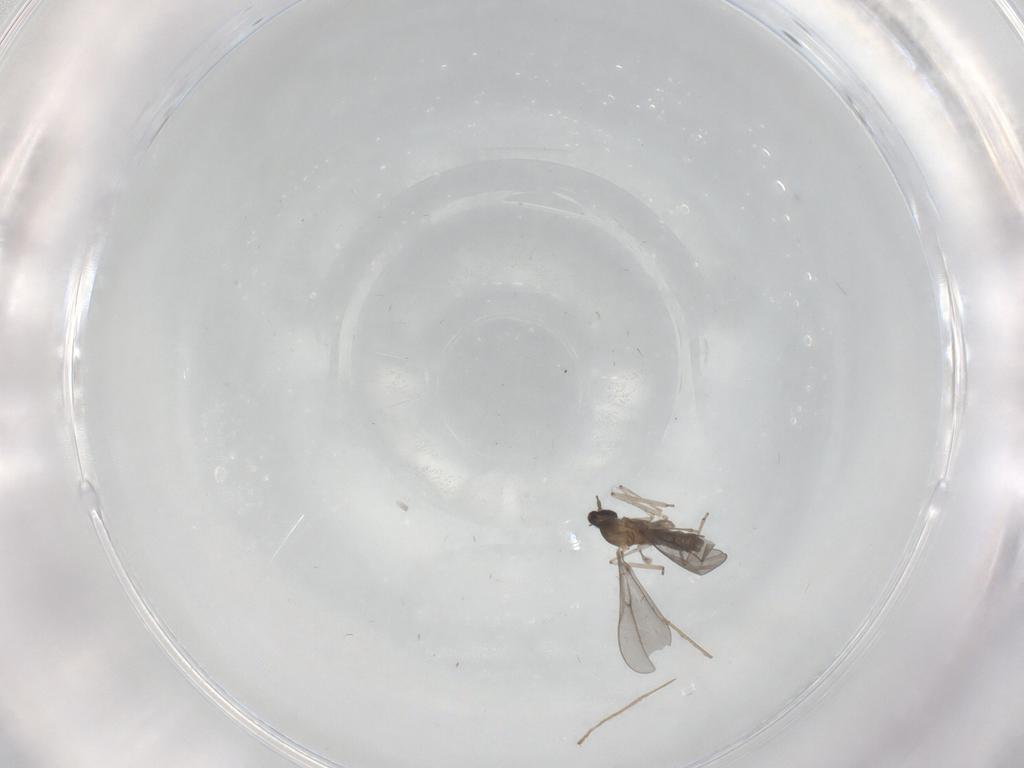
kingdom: Animalia
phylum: Arthropoda
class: Insecta
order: Diptera
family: Limoniidae
